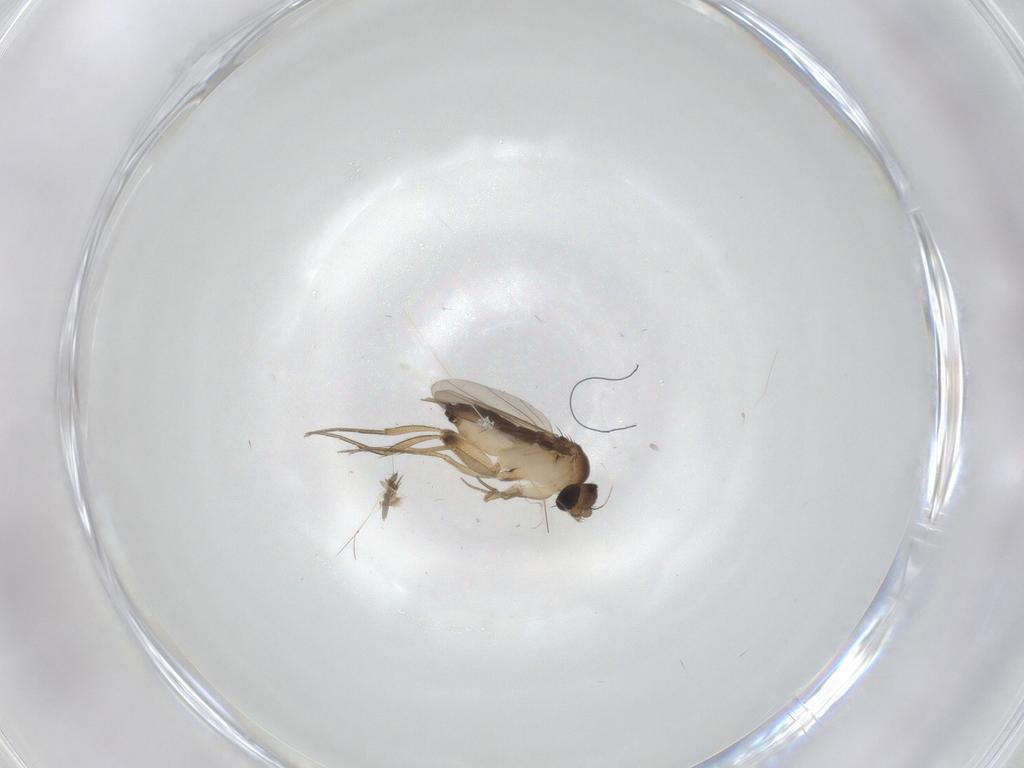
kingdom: Animalia
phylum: Arthropoda
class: Insecta
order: Diptera
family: Phoridae
